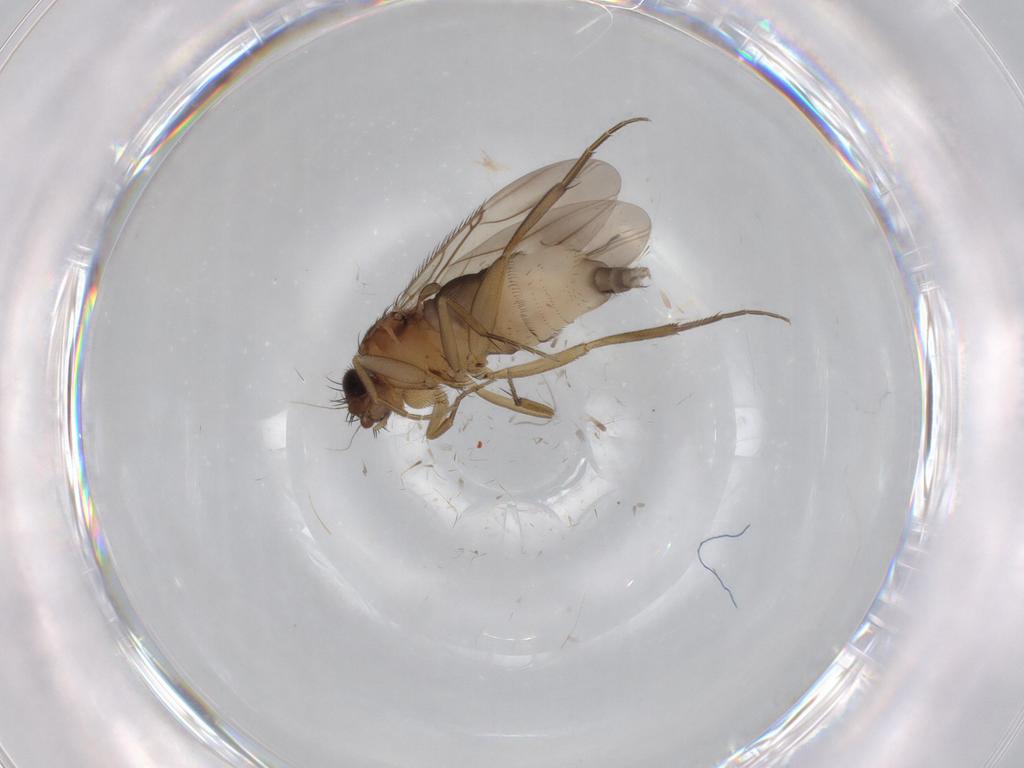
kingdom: Animalia
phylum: Arthropoda
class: Insecta
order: Diptera
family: Phoridae
